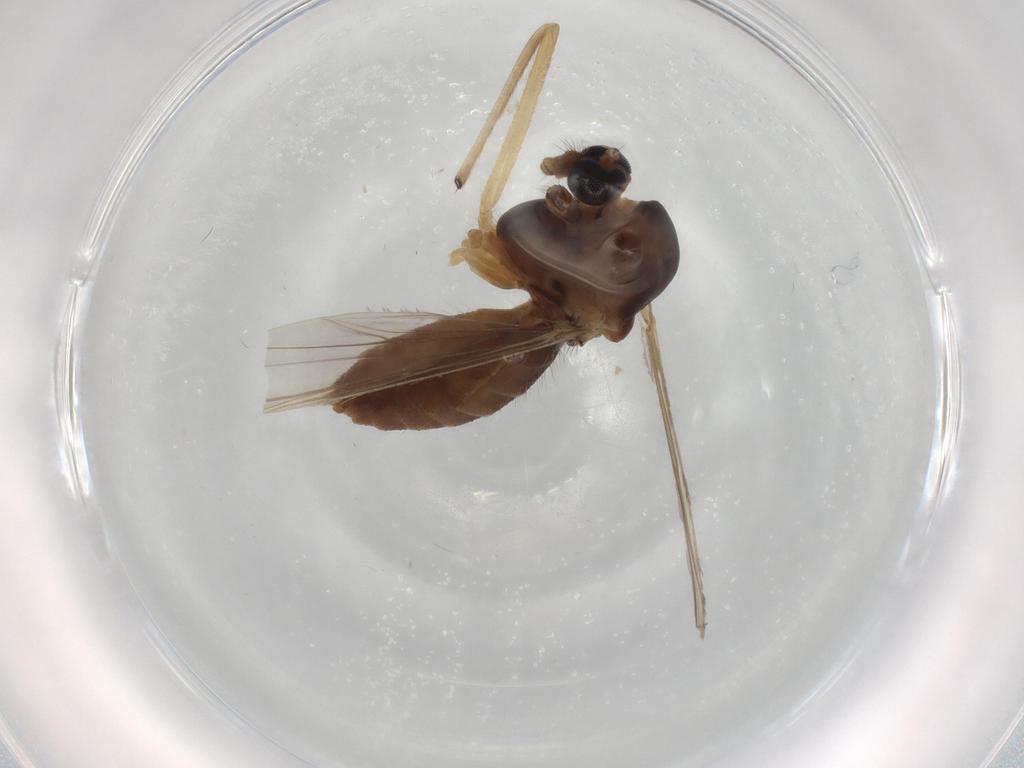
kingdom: Animalia
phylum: Arthropoda
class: Insecta
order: Diptera
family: Chironomidae
